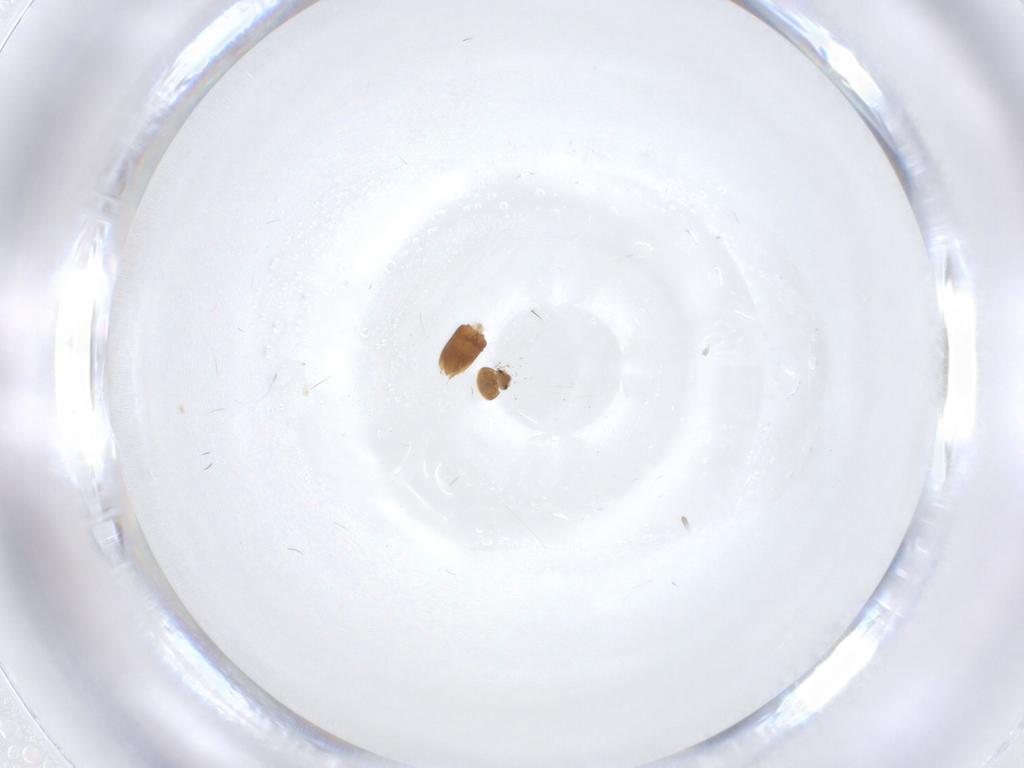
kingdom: Animalia
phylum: Arthropoda
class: Insecta
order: Coleoptera
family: Ptiliidae
